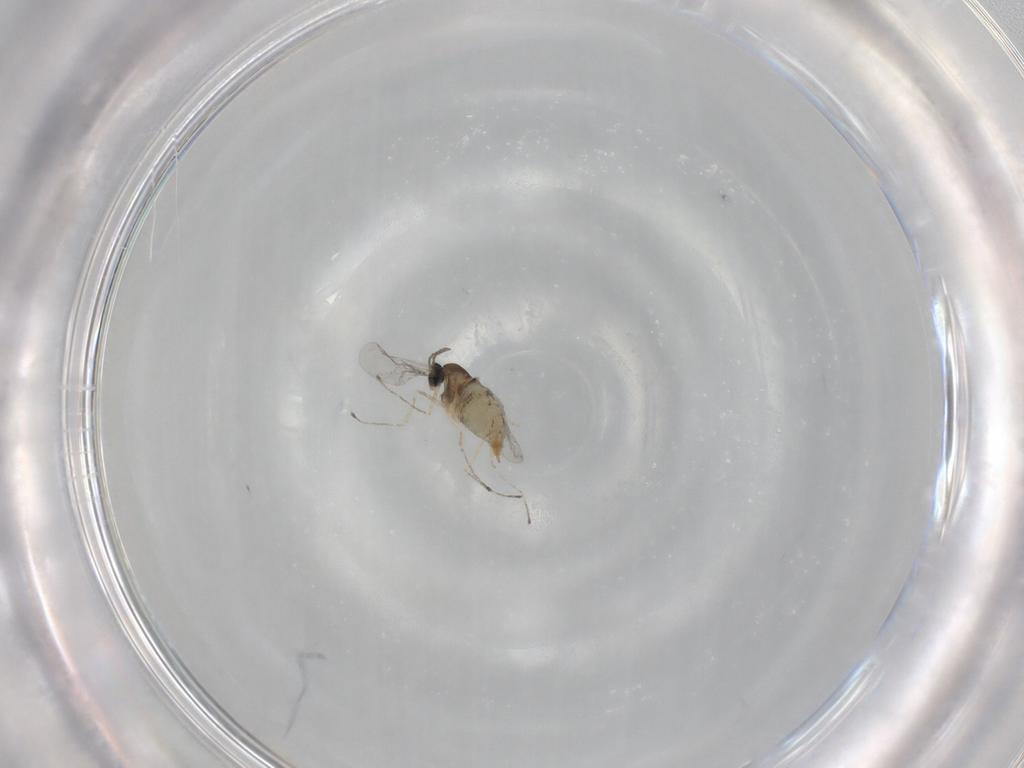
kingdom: Animalia
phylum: Arthropoda
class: Insecta
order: Diptera
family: Cecidomyiidae
